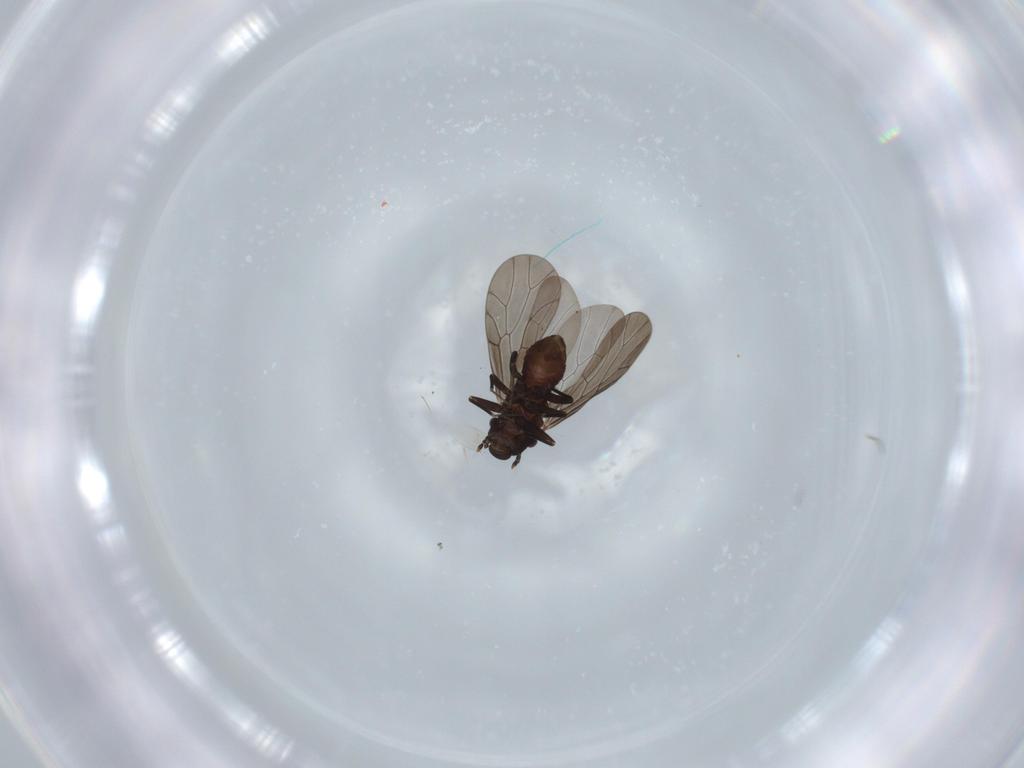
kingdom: Animalia
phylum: Arthropoda
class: Insecta
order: Psocodea
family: Lepidopsocidae
